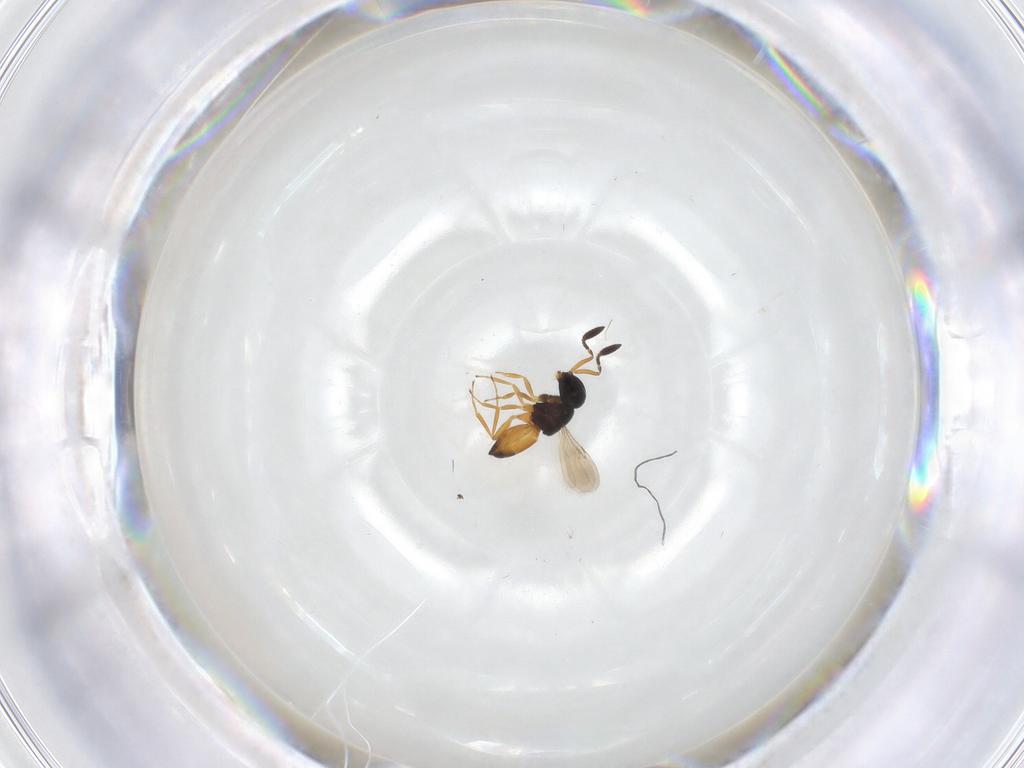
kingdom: Animalia
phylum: Arthropoda
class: Insecta
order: Hymenoptera
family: Scelionidae
